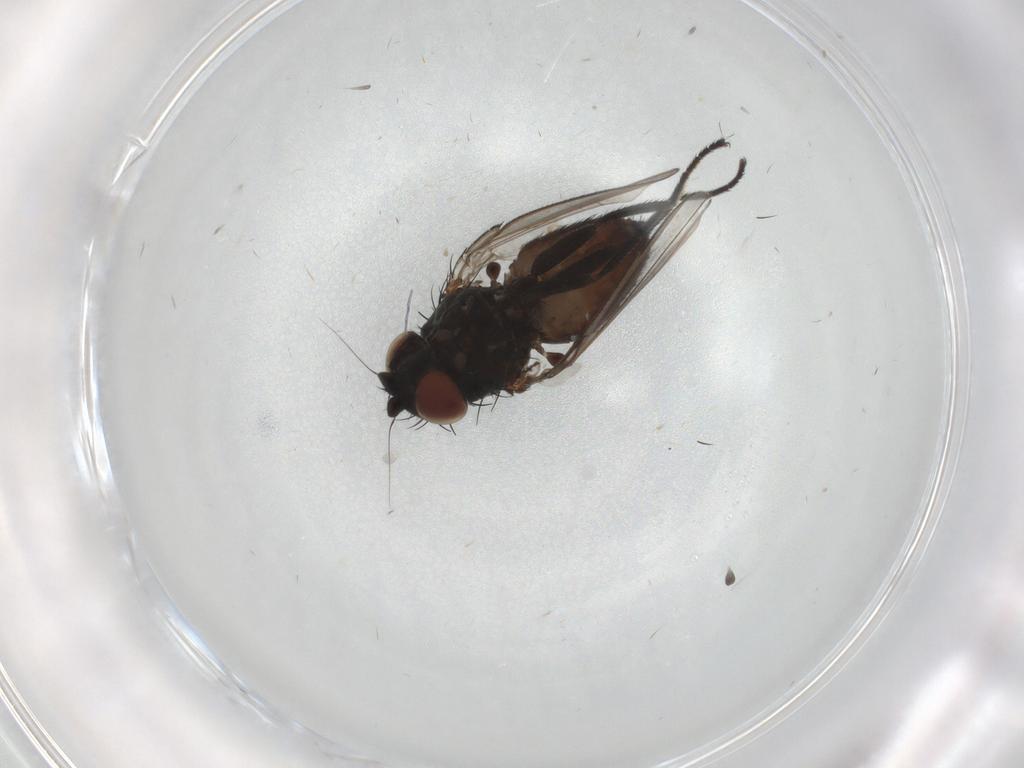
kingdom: Animalia
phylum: Arthropoda
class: Insecta
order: Diptera
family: Milichiidae
